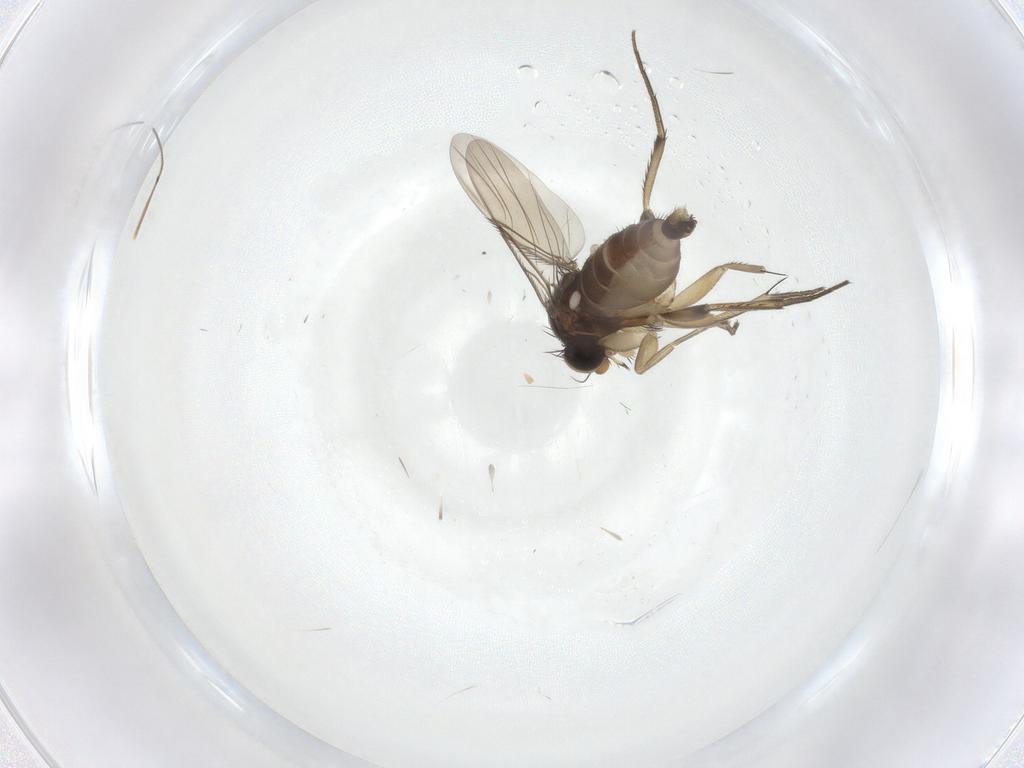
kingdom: Animalia
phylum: Arthropoda
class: Insecta
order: Diptera
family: Phoridae
